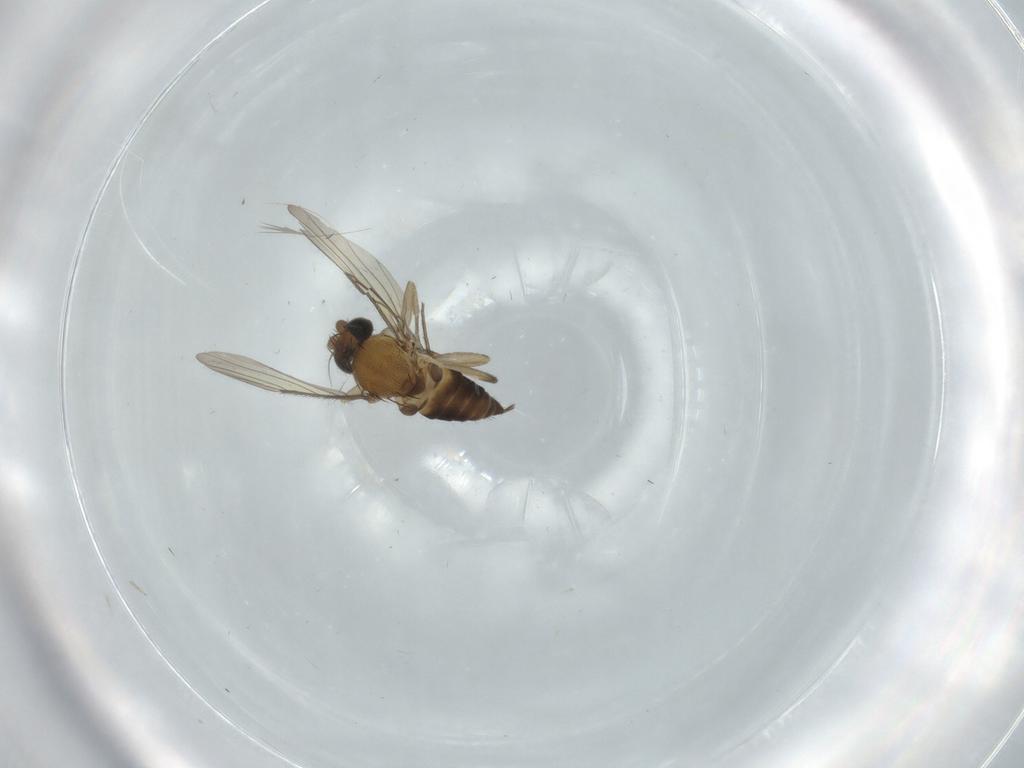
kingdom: Animalia
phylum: Arthropoda
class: Insecta
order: Diptera
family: Phoridae
